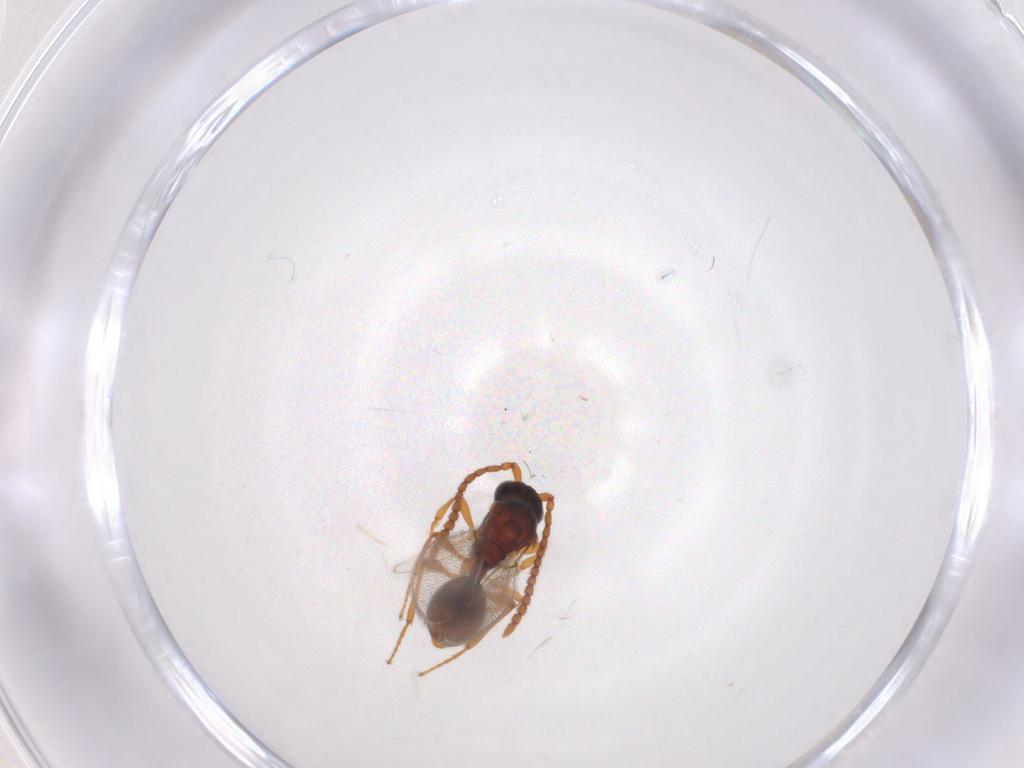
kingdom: Animalia
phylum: Arthropoda
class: Insecta
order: Hymenoptera
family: Diapriidae
